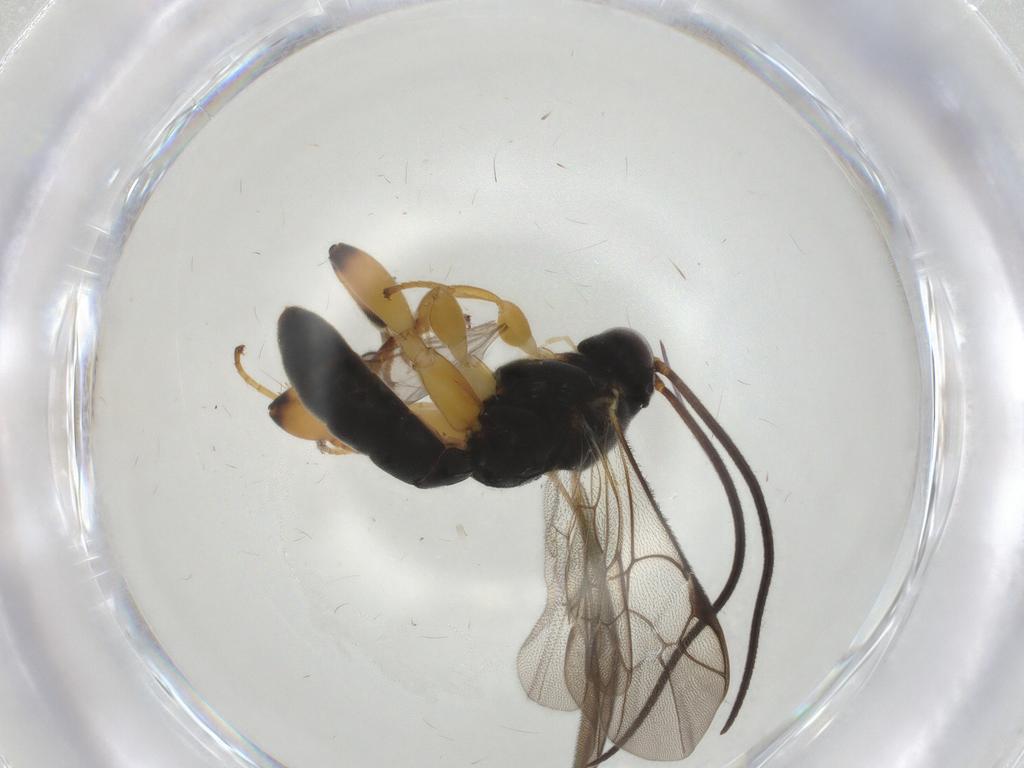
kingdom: Animalia
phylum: Arthropoda
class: Insecta
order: Hymenoptera
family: Ichneumonidae
